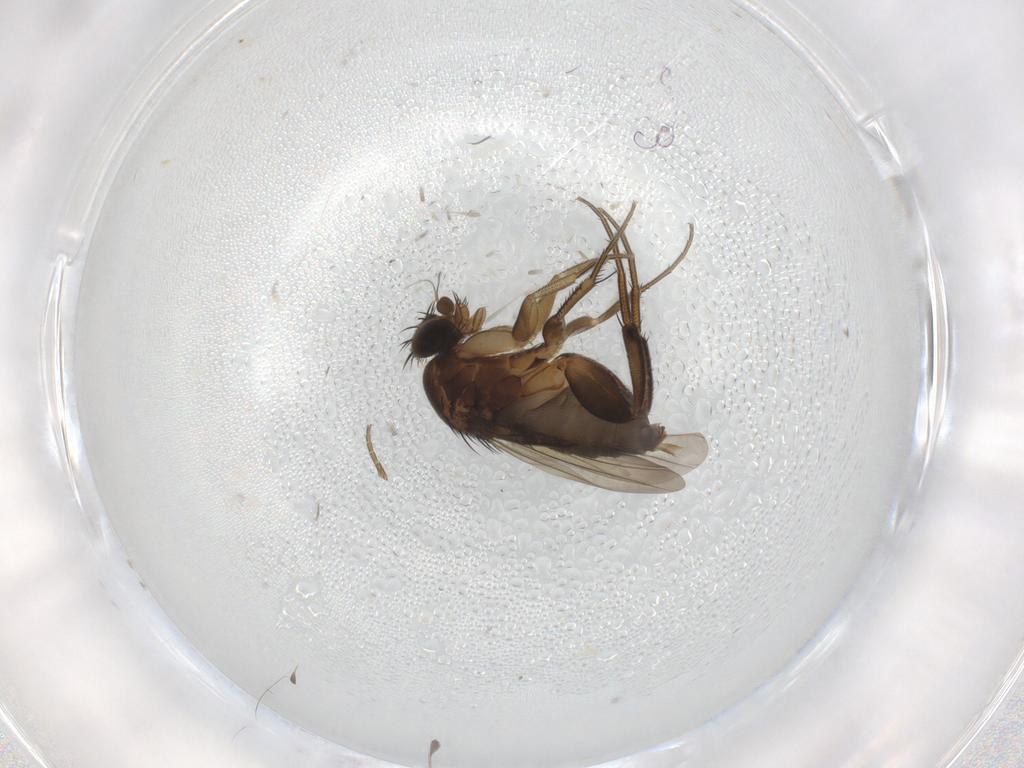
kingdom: Animalia
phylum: Arthropoda
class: Insecta
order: Diptera
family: Phoridae
